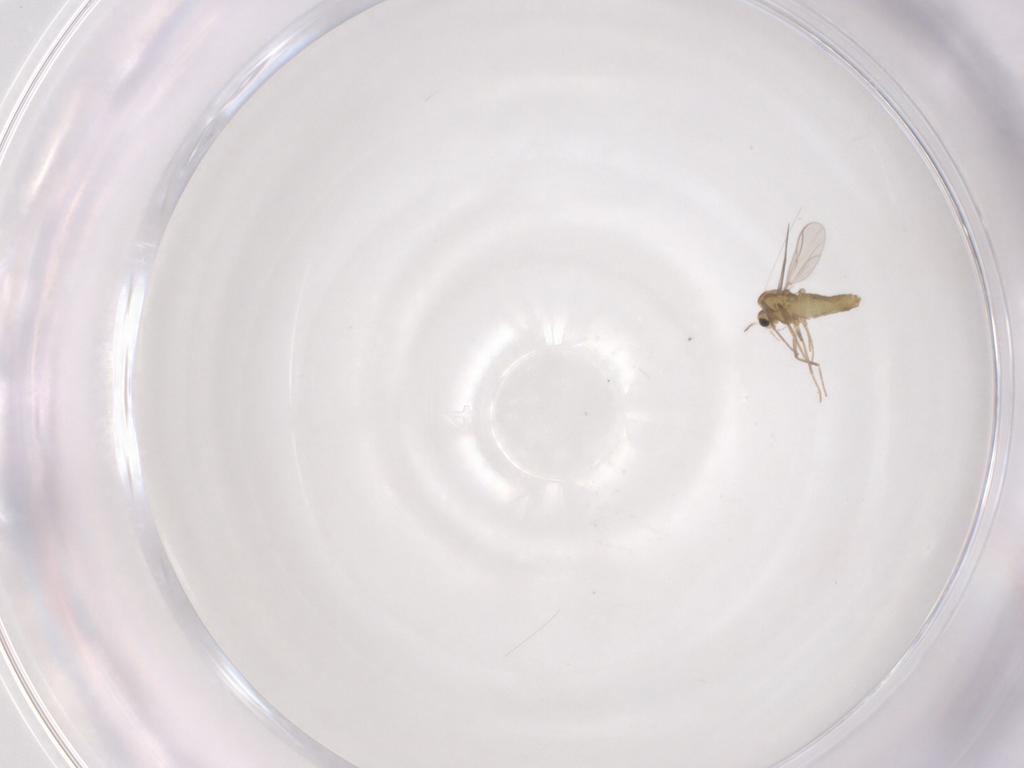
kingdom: Animalia
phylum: Arthropoda
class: Insecta
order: Diptera
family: Chironomidae
